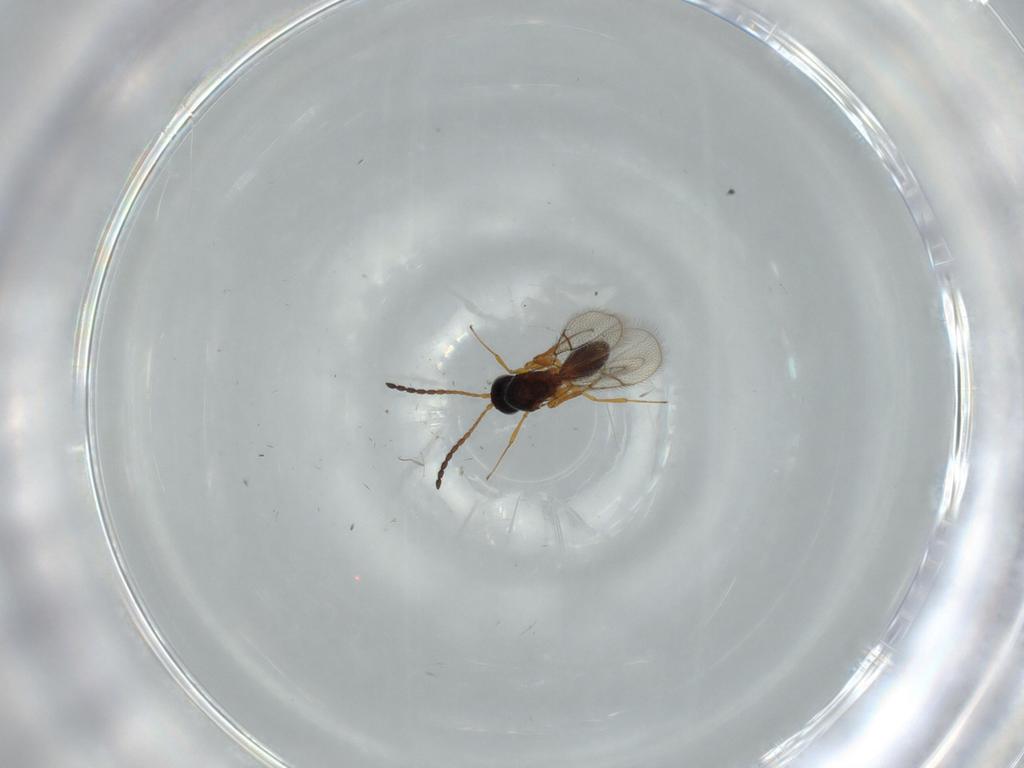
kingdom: Animalia
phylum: Arthropoda
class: Insecta
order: Hymenoptera
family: Figitidae
